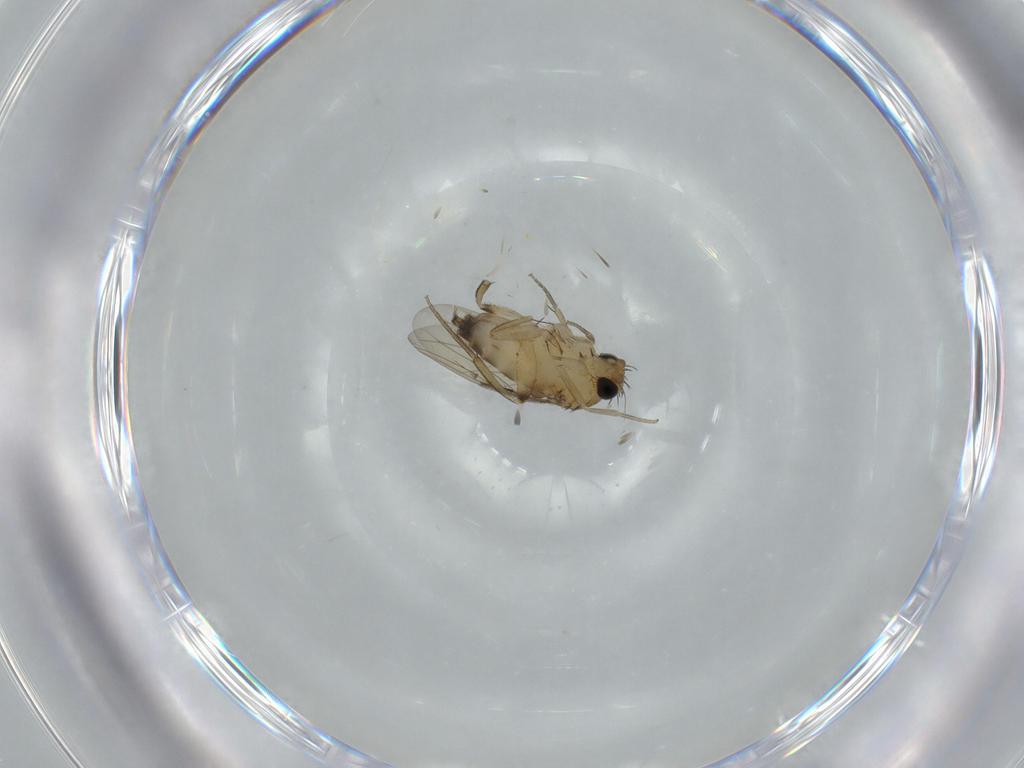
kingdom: Animalia
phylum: Arthropoda
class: Insecta
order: Diptera
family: Phoridae
